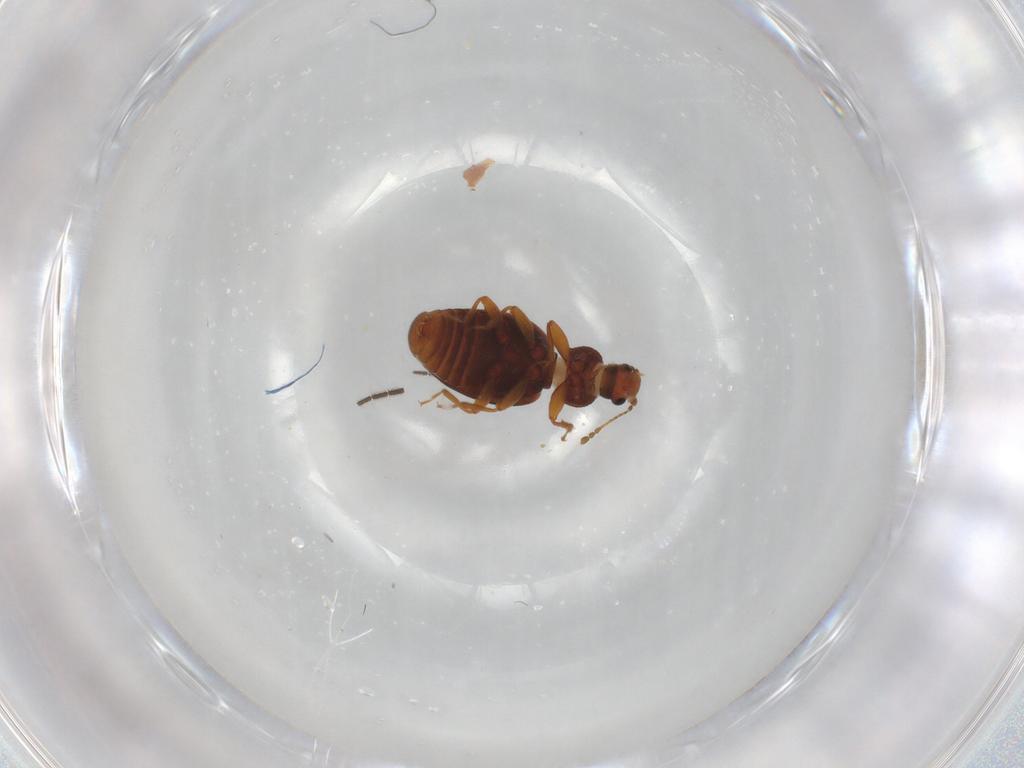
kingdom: Animalia
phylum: Arthropoda
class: Insecta
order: Coleoptera
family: Latridiidae
